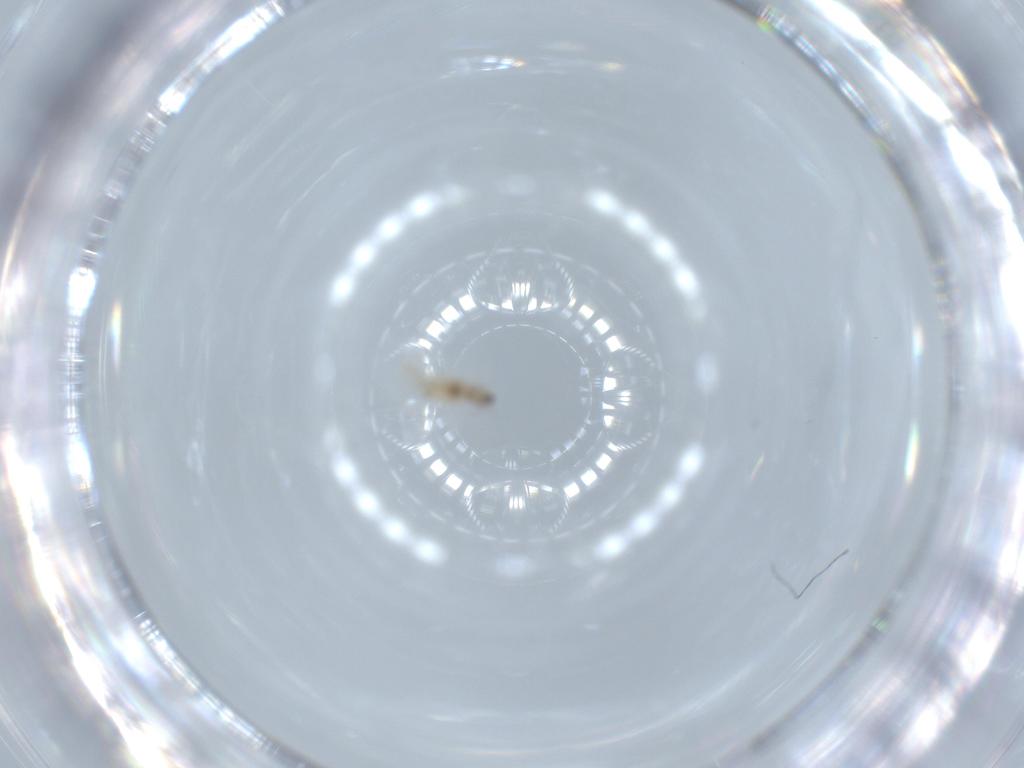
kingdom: Animalia
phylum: Arthropoda
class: Insecta
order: Diptera
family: Cecidomyiidae
